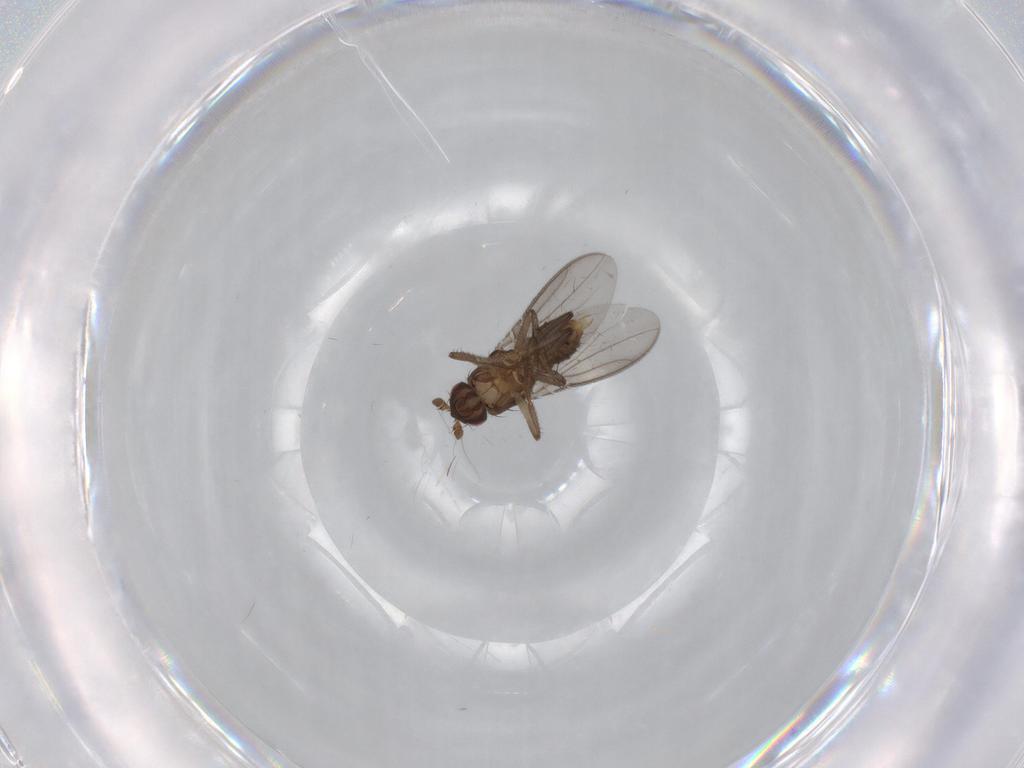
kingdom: Animalia
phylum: Arthropoda
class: Insecta
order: Diptera
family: Sphaeroceridae
